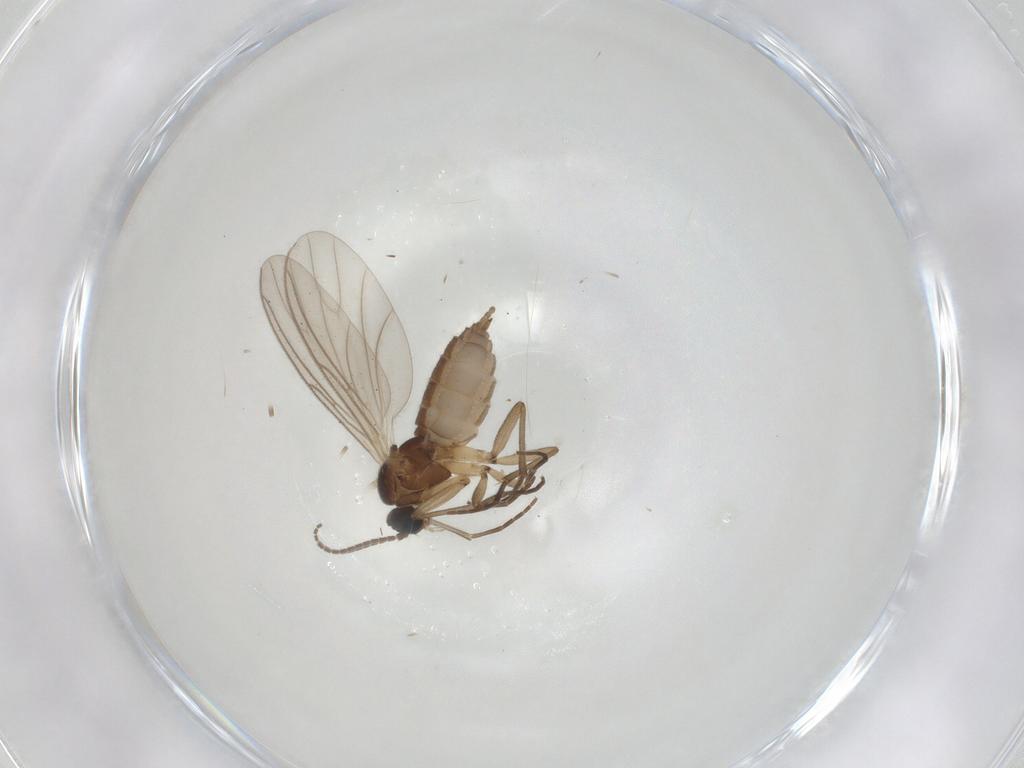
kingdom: Animalia
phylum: Arthropoda
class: Insecta
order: Diptera
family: Sciaridae
